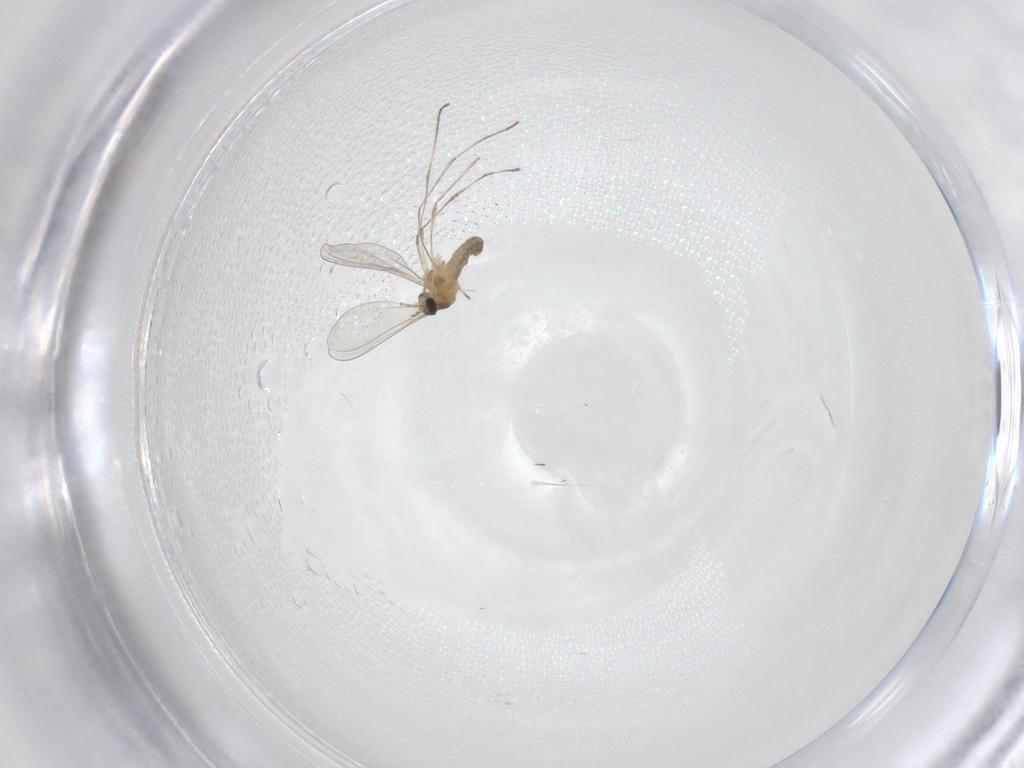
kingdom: Animalia
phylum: Arthropoda
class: Insecta
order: Diptera
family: Cecidomyiidae
